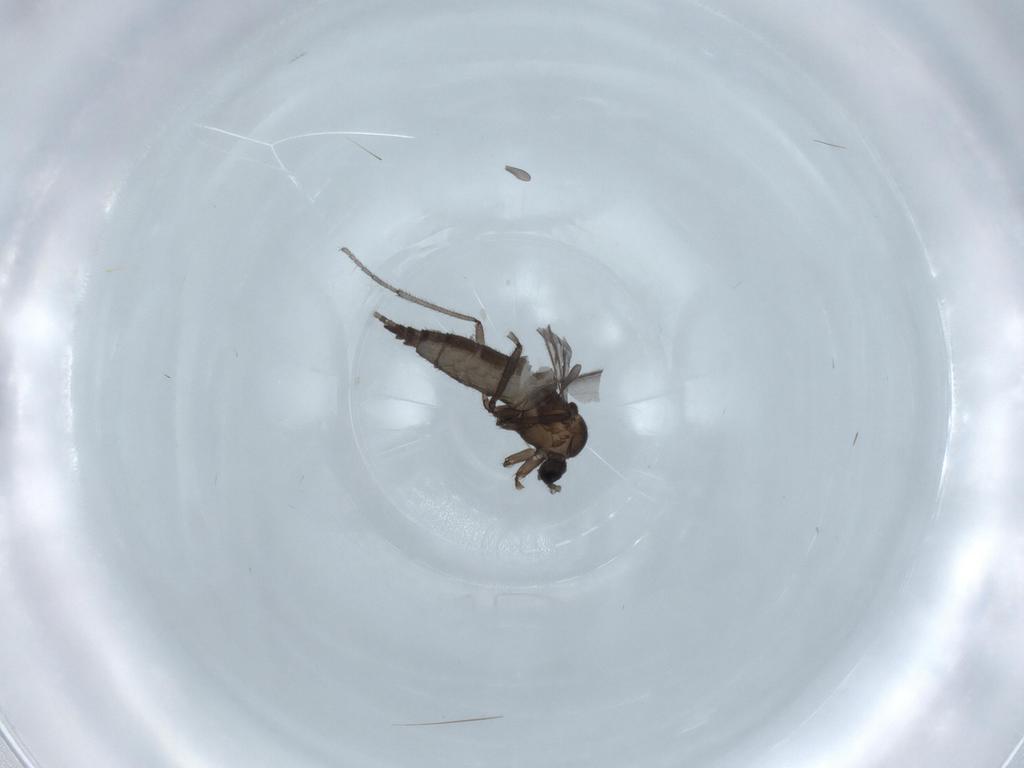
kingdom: Animalia
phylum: Arthropoda
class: Insecta
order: Diptera
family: Sciaridae
